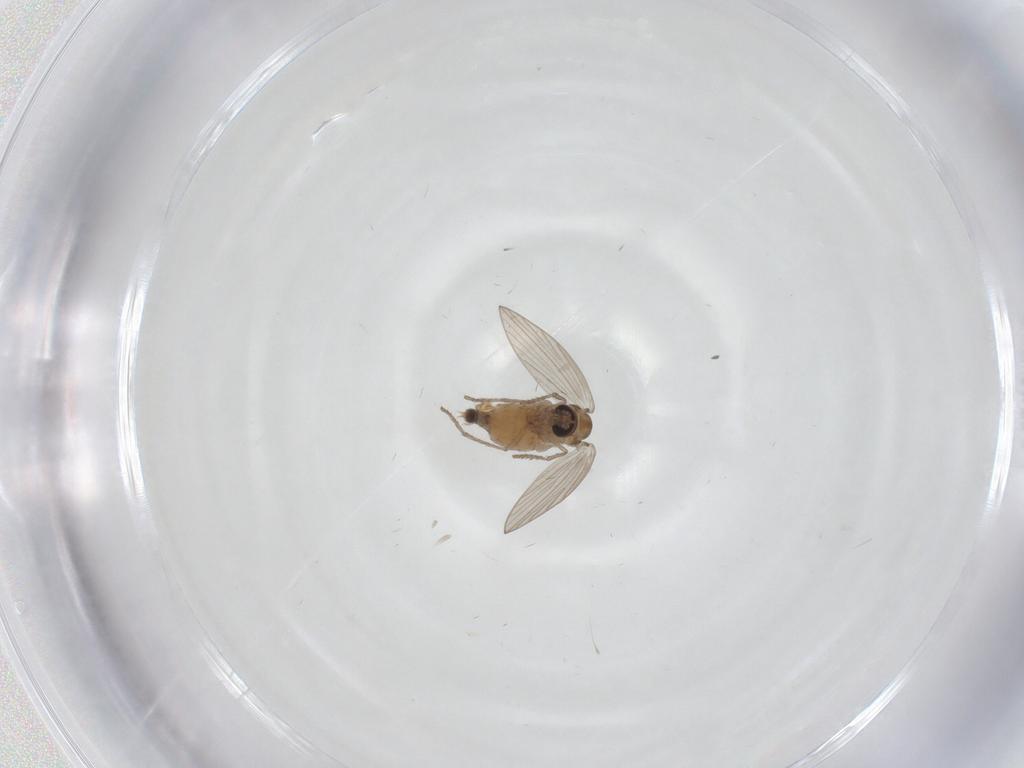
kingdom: Animalia
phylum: Arthropoda
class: Insecta
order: Diptera
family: Psychodidae
